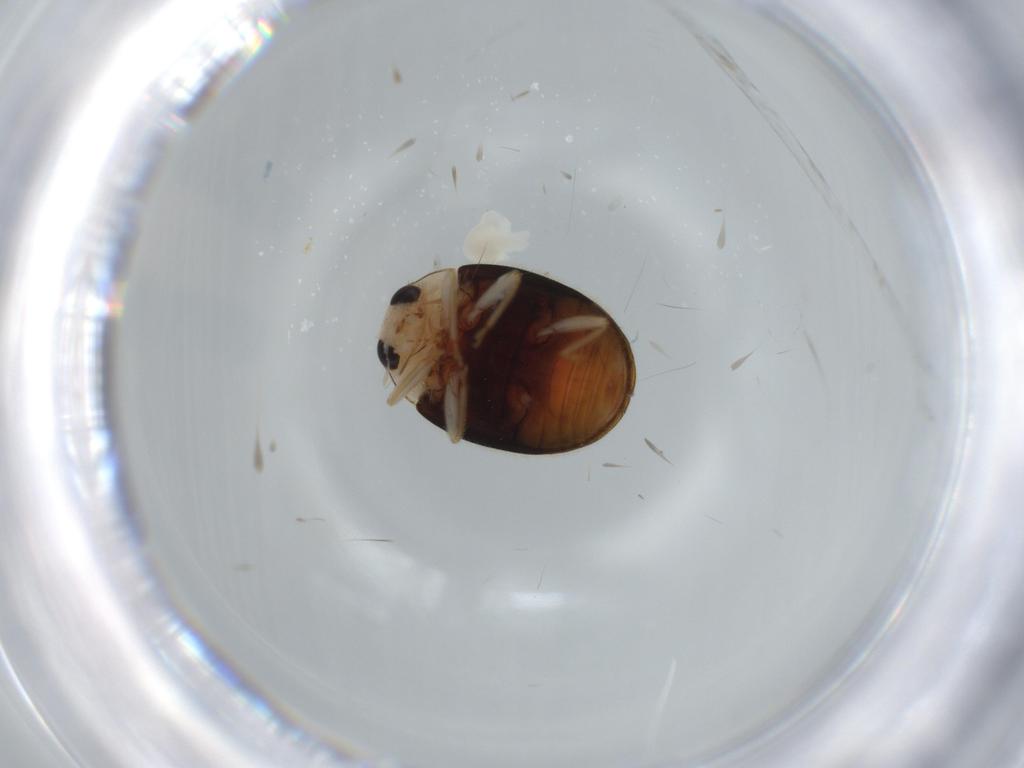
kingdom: Animalia
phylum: Arthropoda
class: Insecta
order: Coleoptera
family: Coccinellidae
